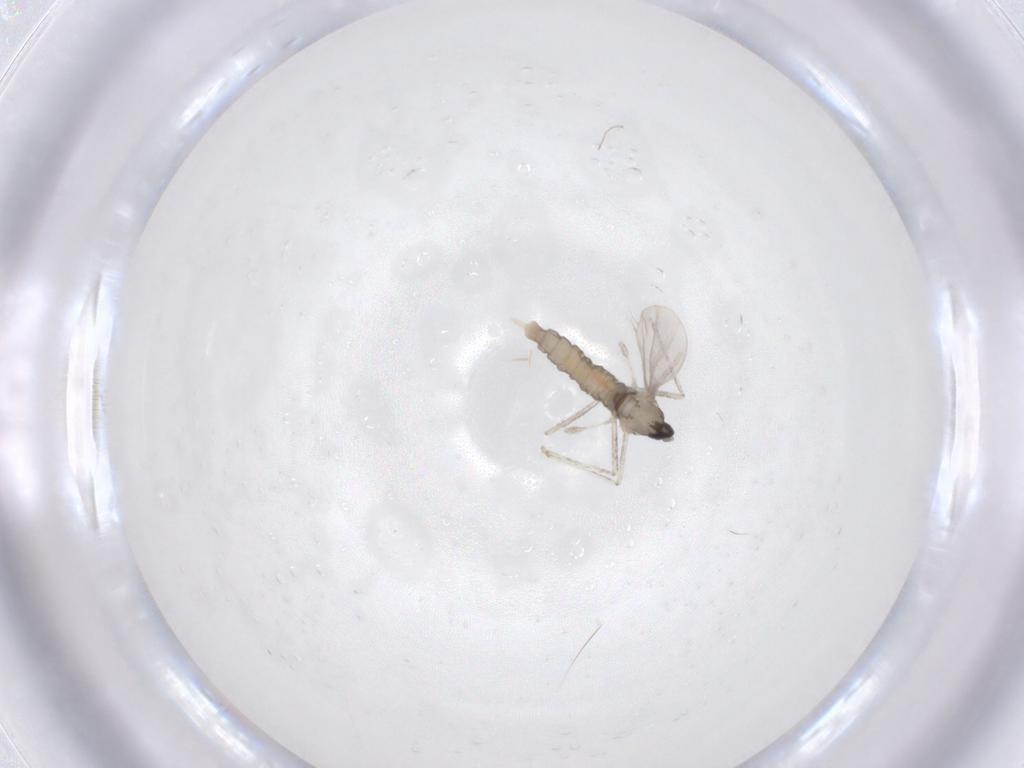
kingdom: Animalia
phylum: Arthropoda
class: Insecta
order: Diptera
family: Cecidomyiidae
